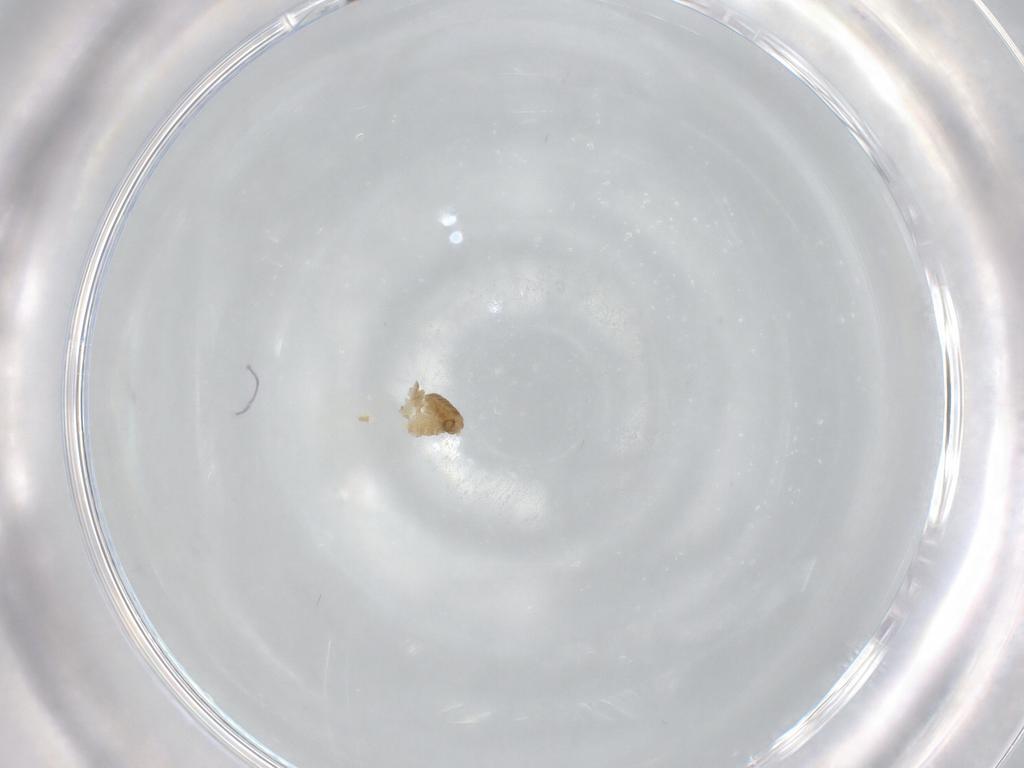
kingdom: Animalia
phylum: Arthropoda
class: Insecta
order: Diptera
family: Chironomidae
